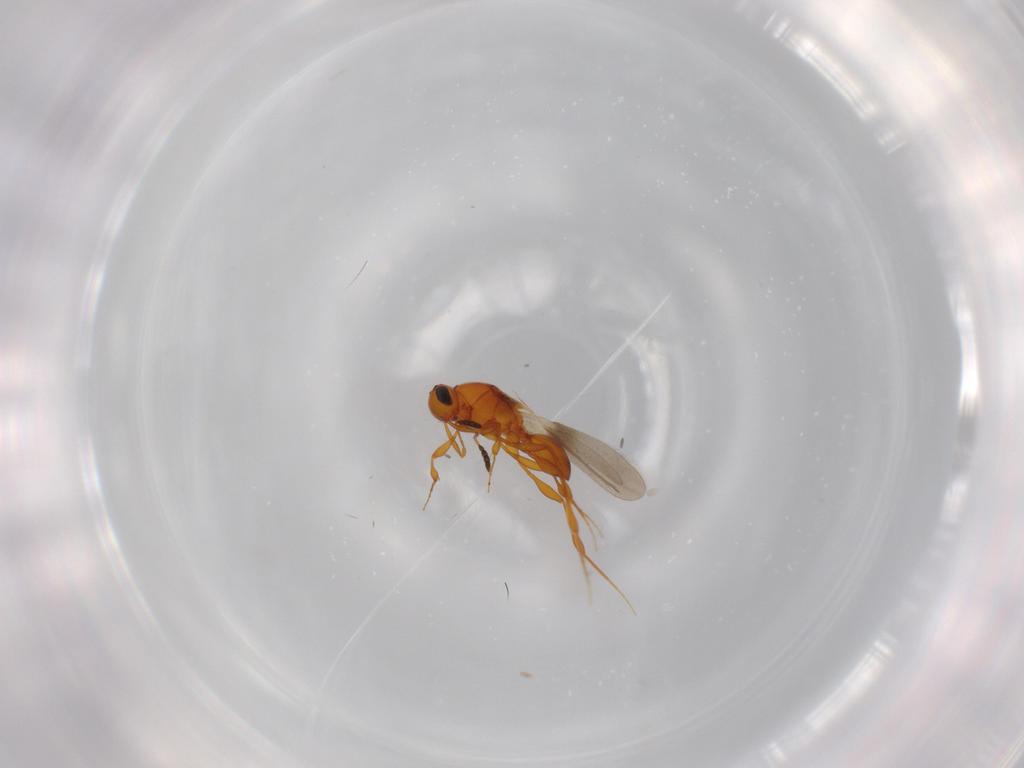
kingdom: Animalia
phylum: Arthropoda
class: Insecta
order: Hymenoptera
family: Platygastridae
